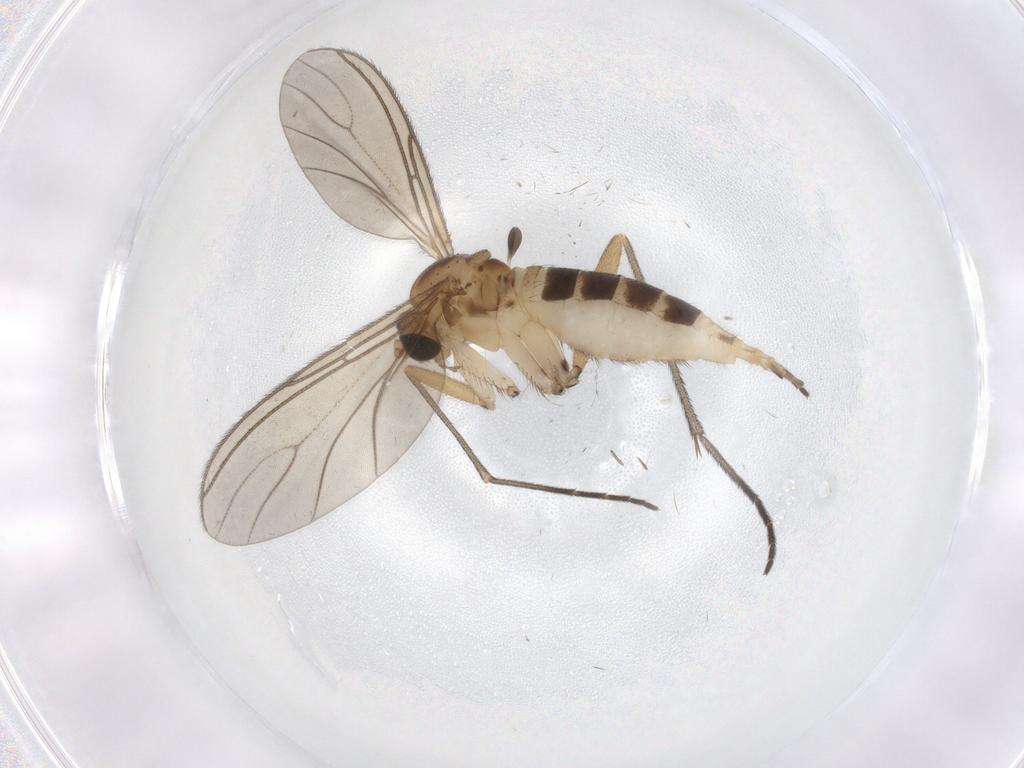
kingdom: Animalia
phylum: Arthropoda
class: Insecta
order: Diptera
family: Sciaridae
